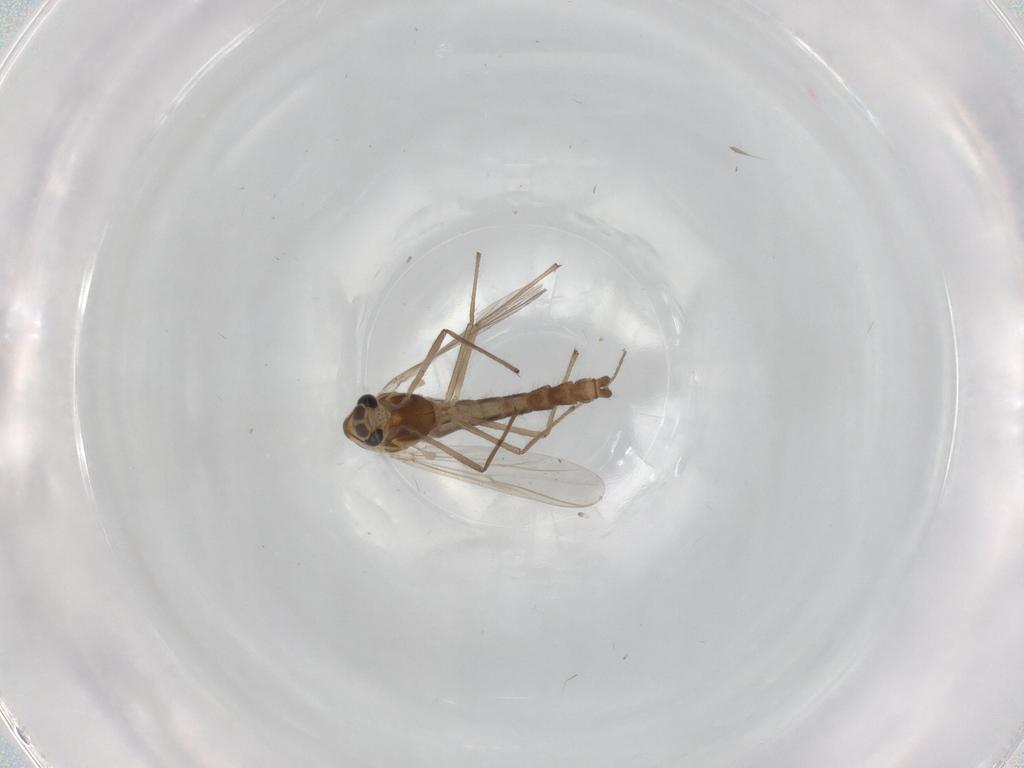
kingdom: Animalia
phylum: Arthropoda
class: Insecta
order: Diptera
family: Chironomidae
